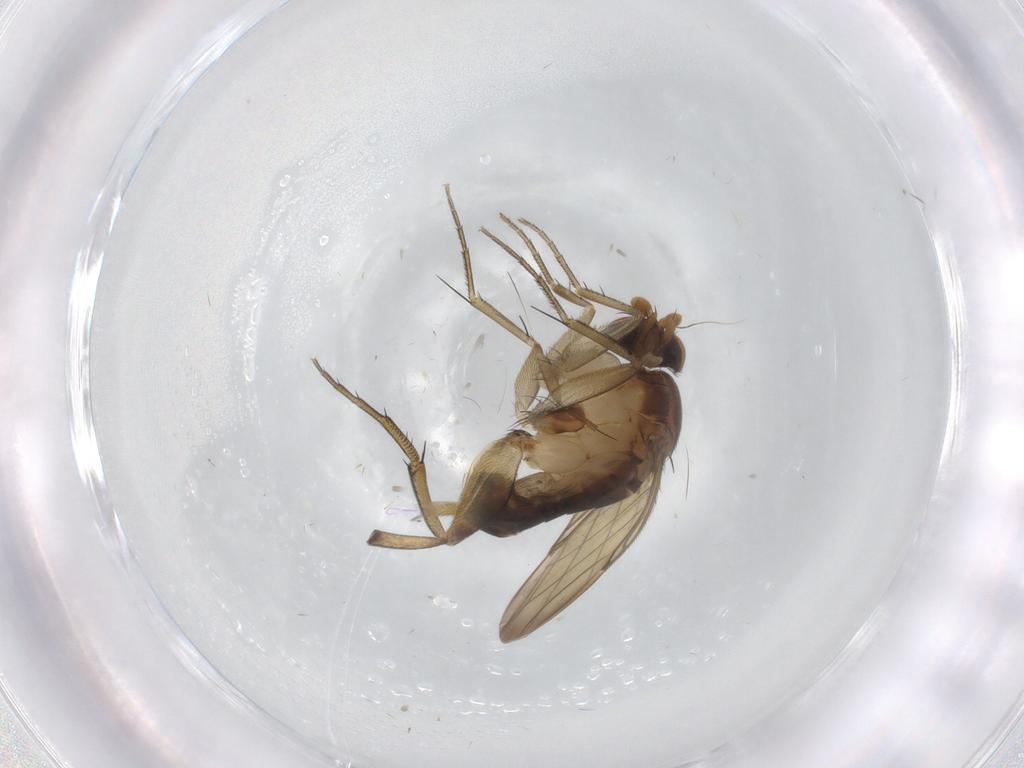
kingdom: Animalia
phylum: Arthropoda
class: Insecta
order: Diptera
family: Phoridae
